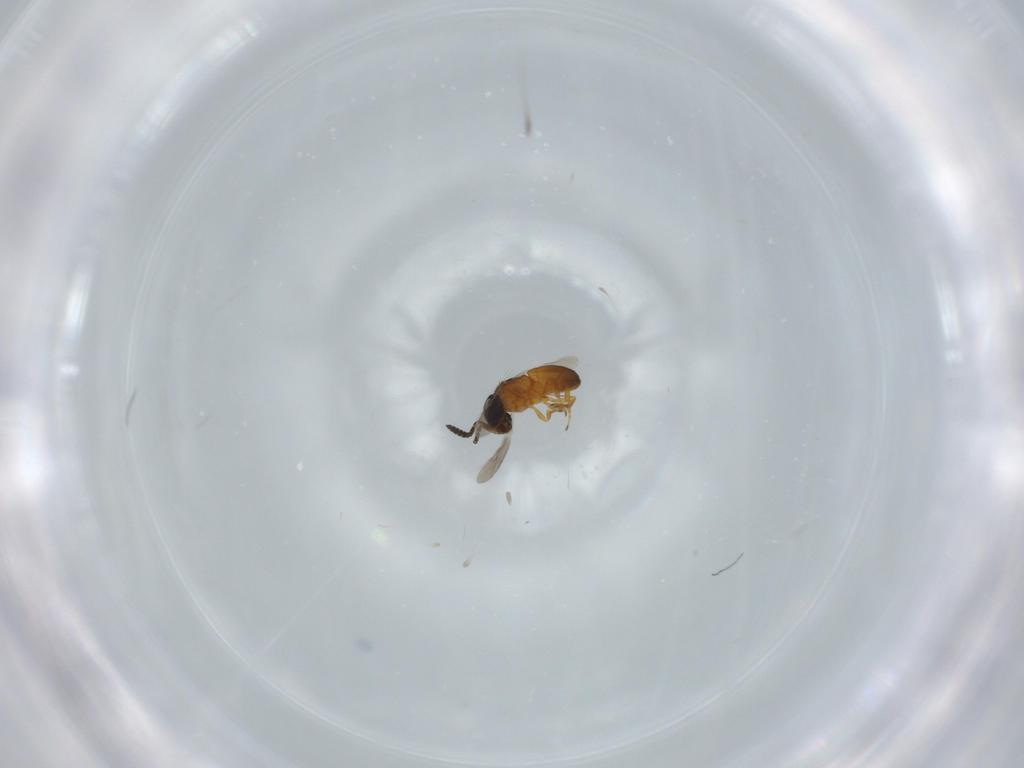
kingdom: Animalia
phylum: Arthropoda
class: Insecta
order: Hymenoptera
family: Scelionidae
